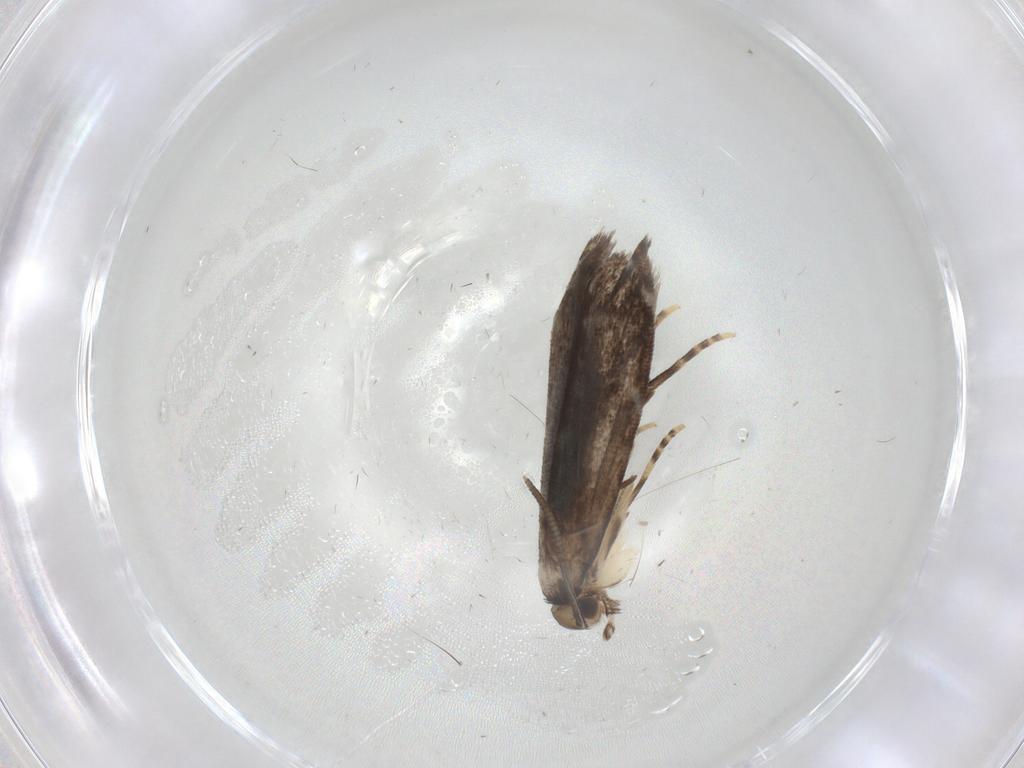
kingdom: Animalia
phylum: Arthropoda
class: Insecta
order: Lepidoptera
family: Dryadaulidae
